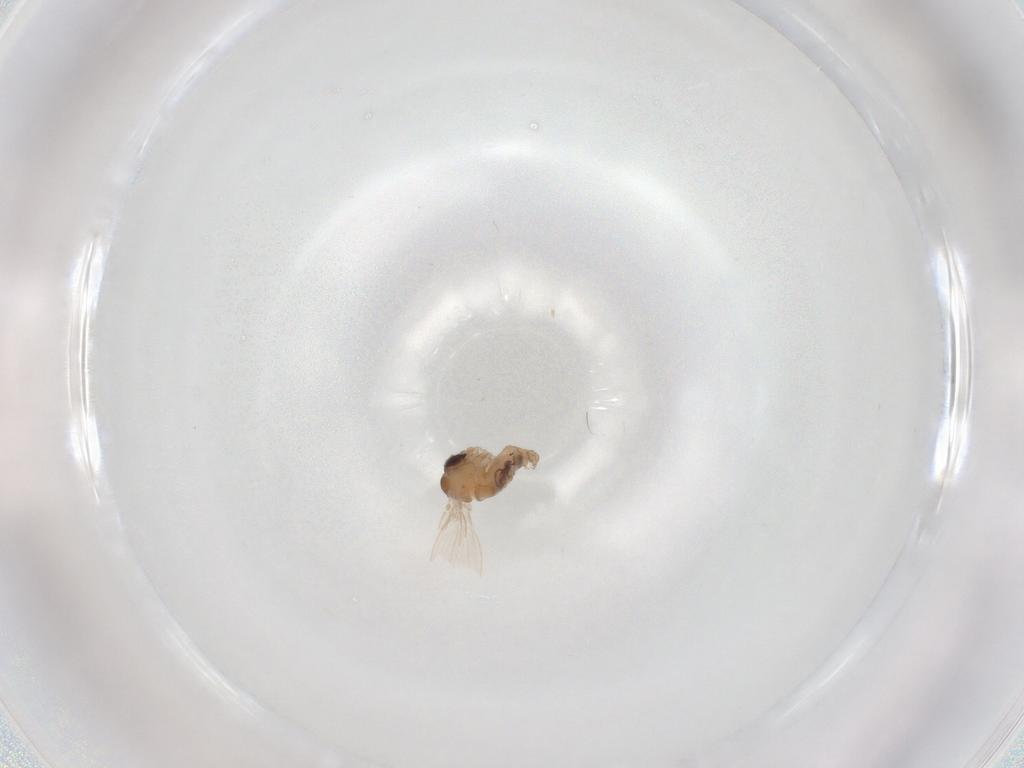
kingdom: Animalia
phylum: Arthropoda
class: Insecta
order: Diptera
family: Psychodidae
